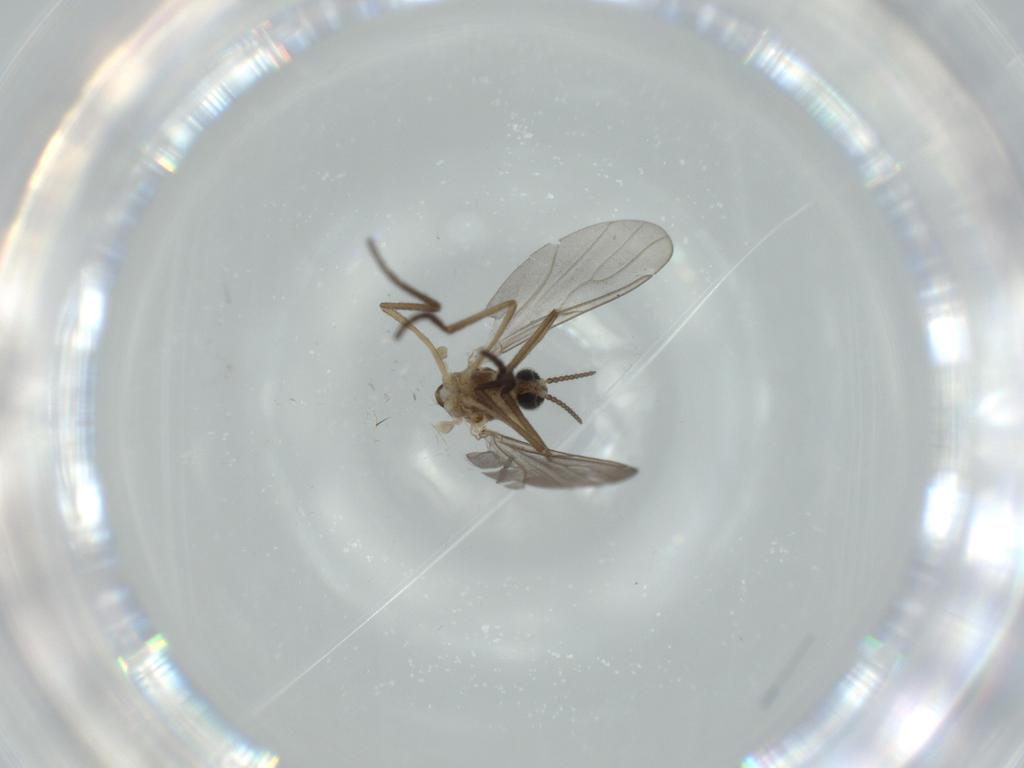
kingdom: Animalia
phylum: Arthropoda
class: Insecta
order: Diptera
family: Cecidomyiidae
